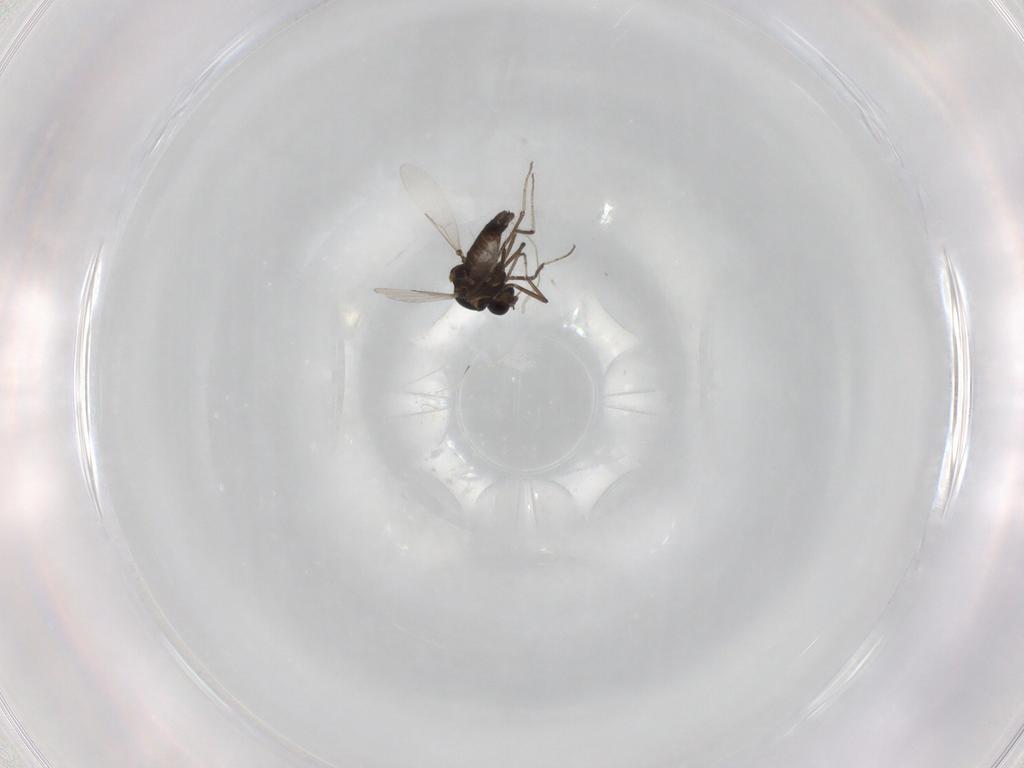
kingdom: Animalia
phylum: Arthropoda
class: Insecta
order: Diptera
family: Ceratopogonidae
